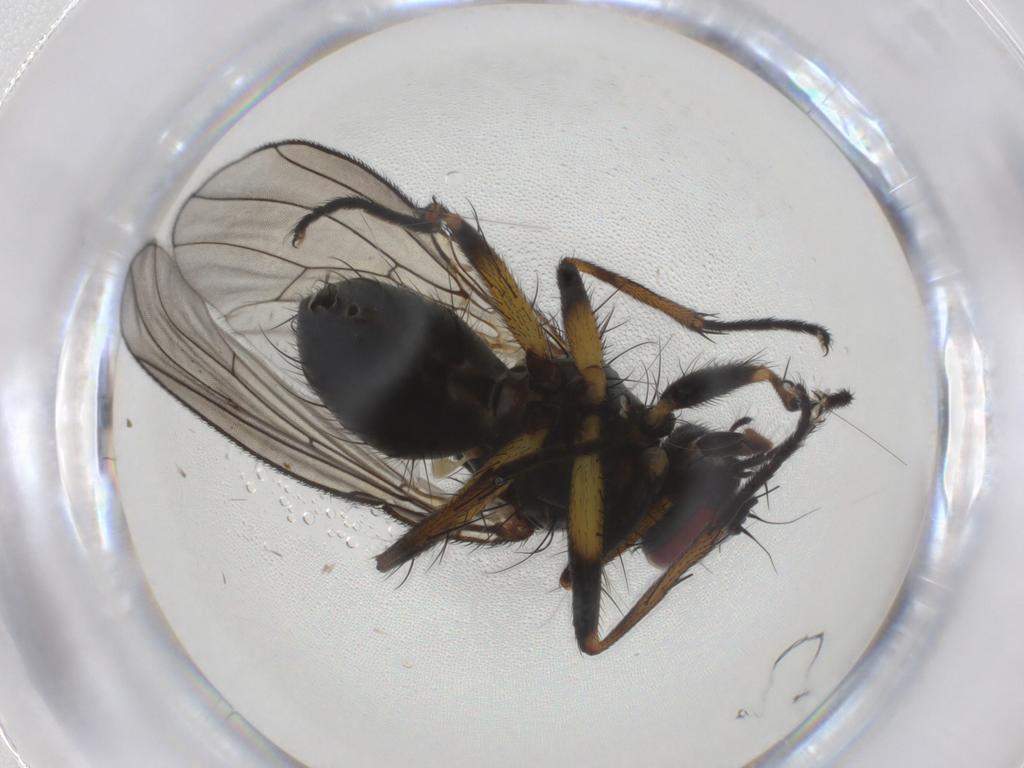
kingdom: Animalia
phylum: Arthropoda
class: Insecta
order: Diptera
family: Muscidae
